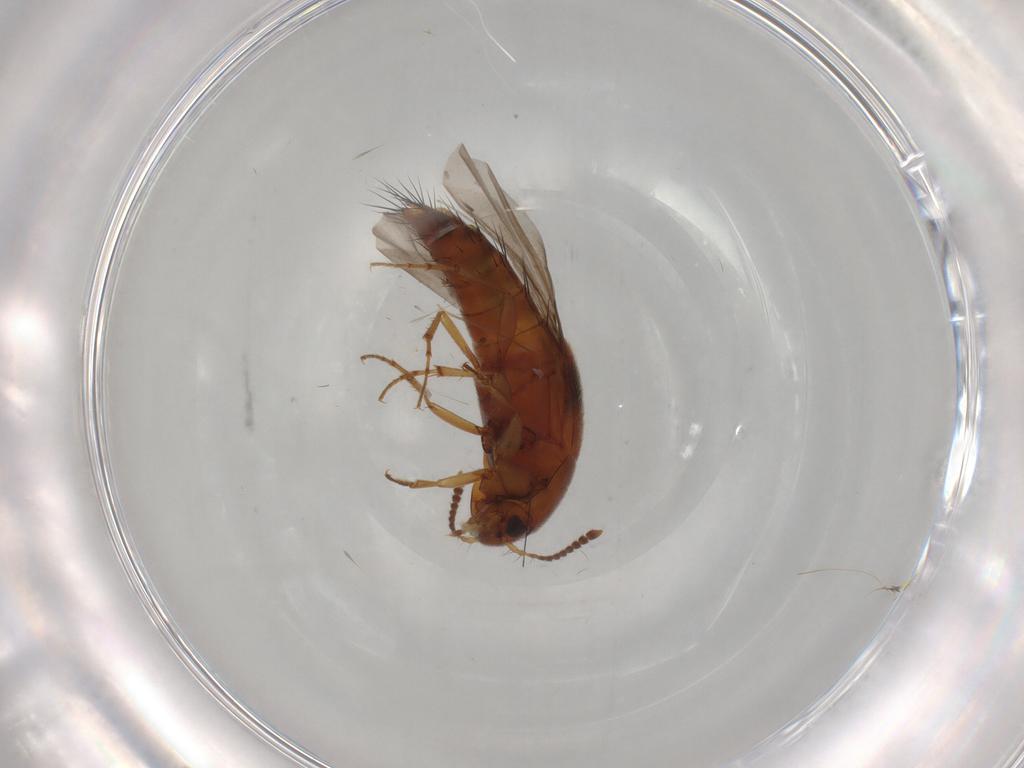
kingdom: Animalia
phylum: Arthropoda
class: Insecta
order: Coleoptera
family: Staphylinidae
